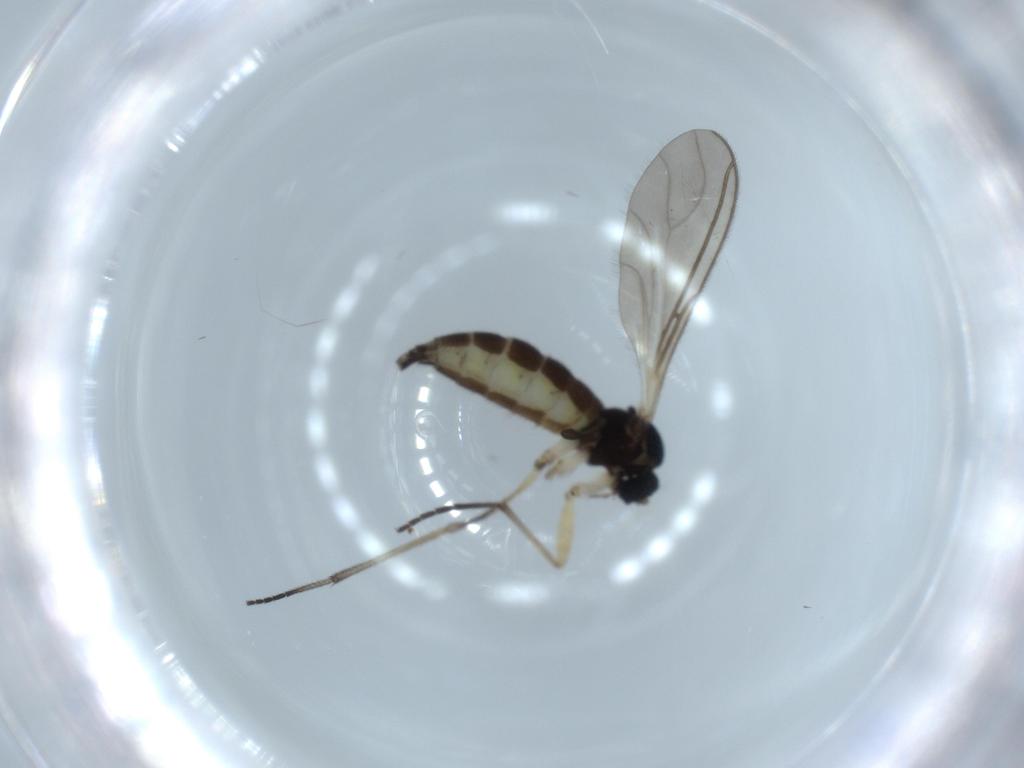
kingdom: Animalia
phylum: Arthropoda
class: Insecta
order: Diptera
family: Sciaridae
